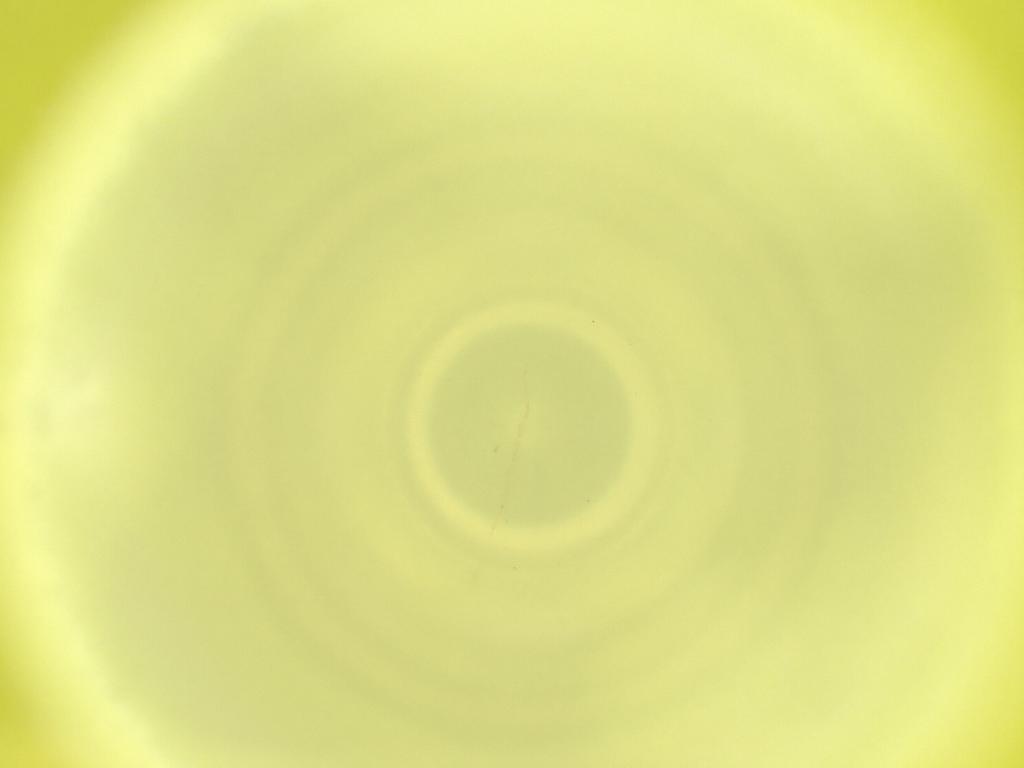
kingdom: Animalia
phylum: Arthropoda
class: Insecta
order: Diptera
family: Cecidomyiidae
